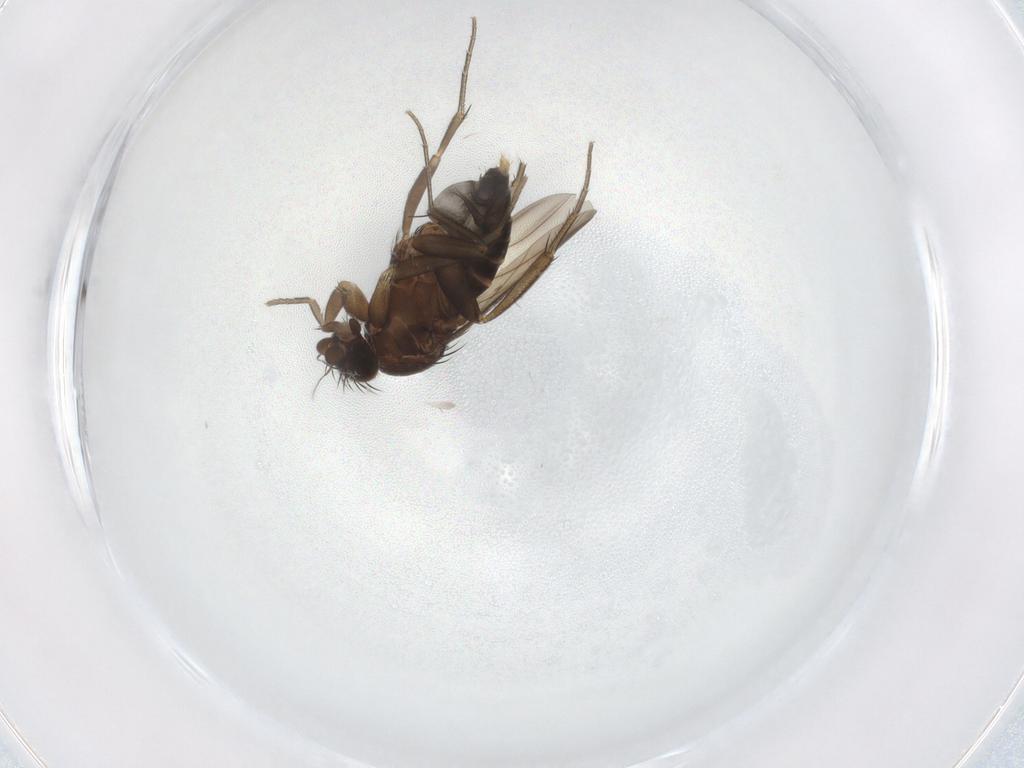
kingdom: Animalia
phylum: Arthropoda
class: Insecta
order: Diptera
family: Phoridae
